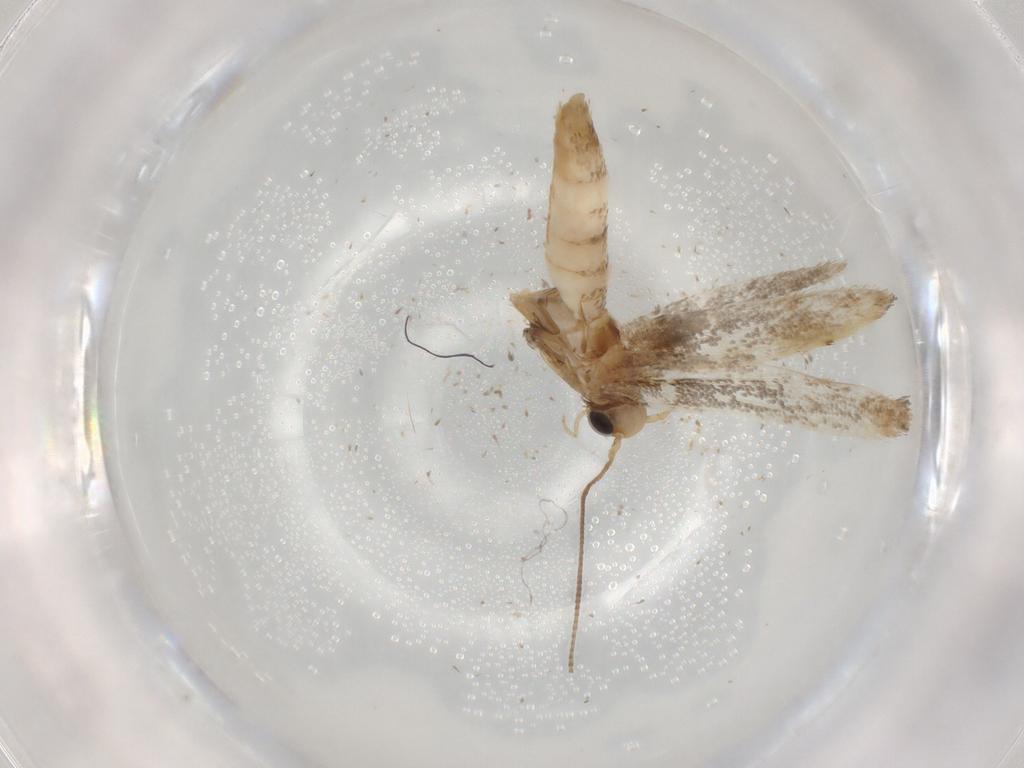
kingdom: Animalia
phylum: Arthropoda
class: Insecta
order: Lepidoptera
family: Gracillariidae
